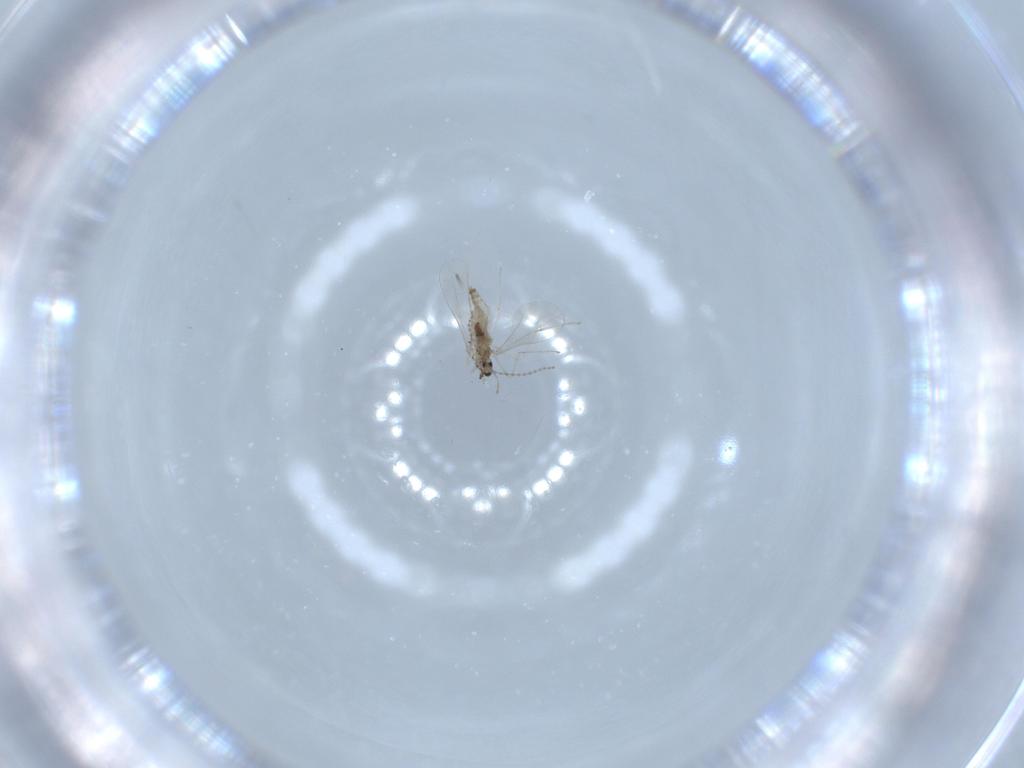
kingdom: Animalia
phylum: Arthropoda
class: Insecta
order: Diptera
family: Cecidomyiidae
